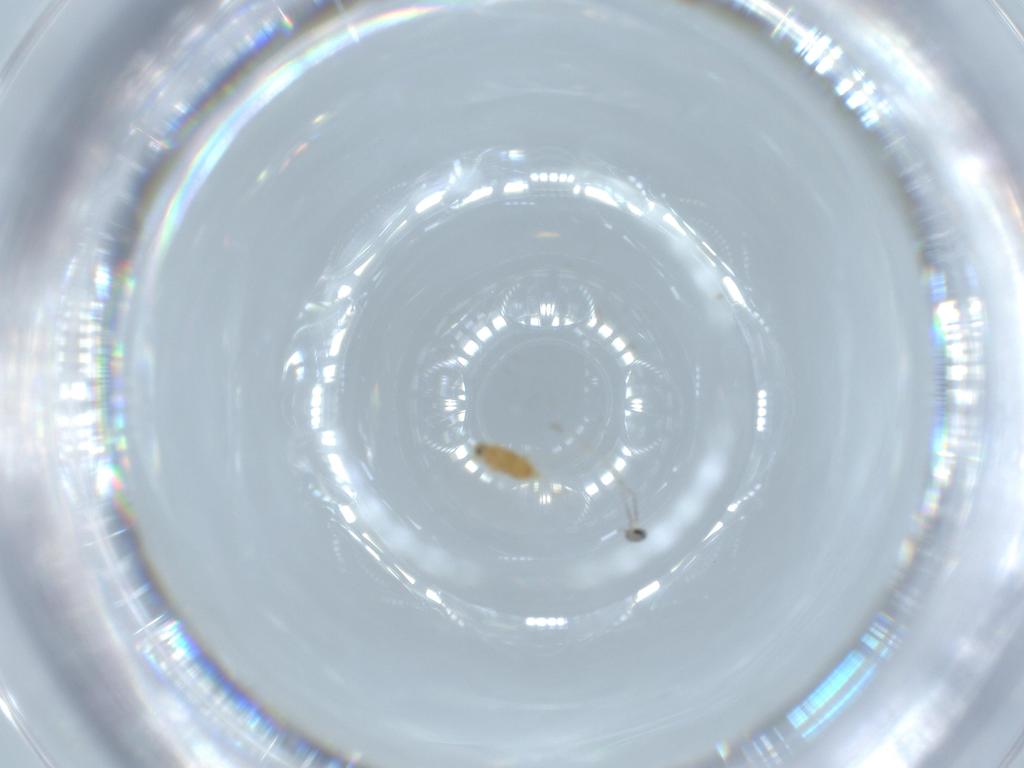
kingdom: Animalia
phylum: Arthropoda
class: Insecta
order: Diptera
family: Cecidomyiidae
